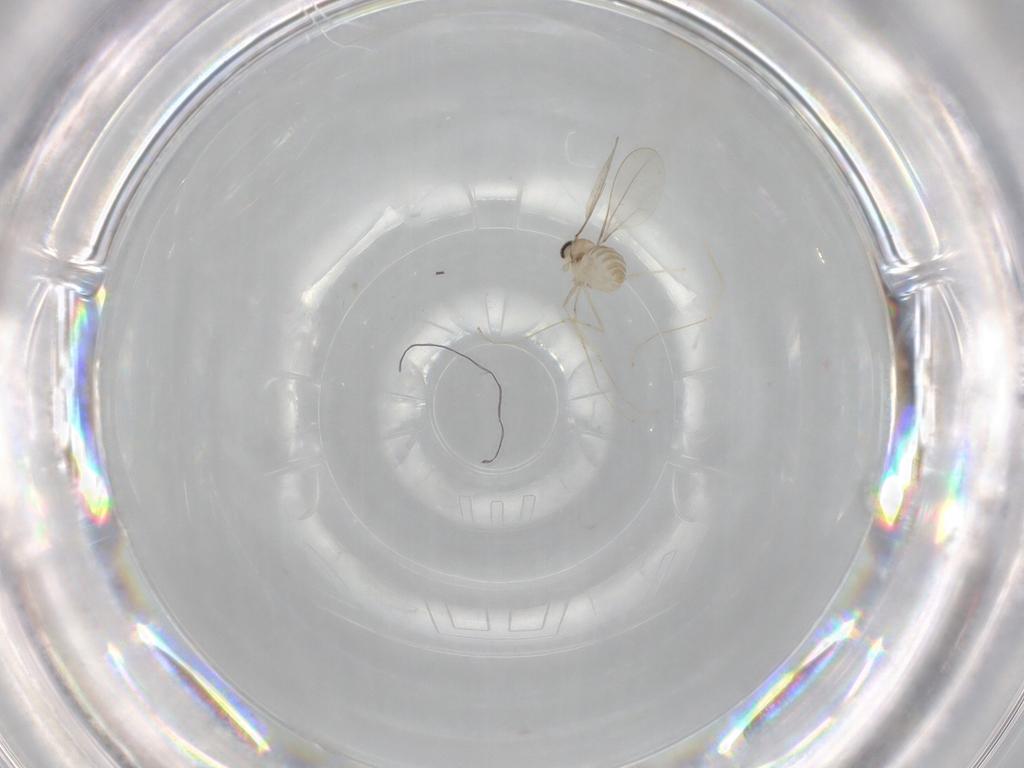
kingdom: Animalia
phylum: Arthropoda
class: Insecta
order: Diptera
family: Cecidomyiidae
